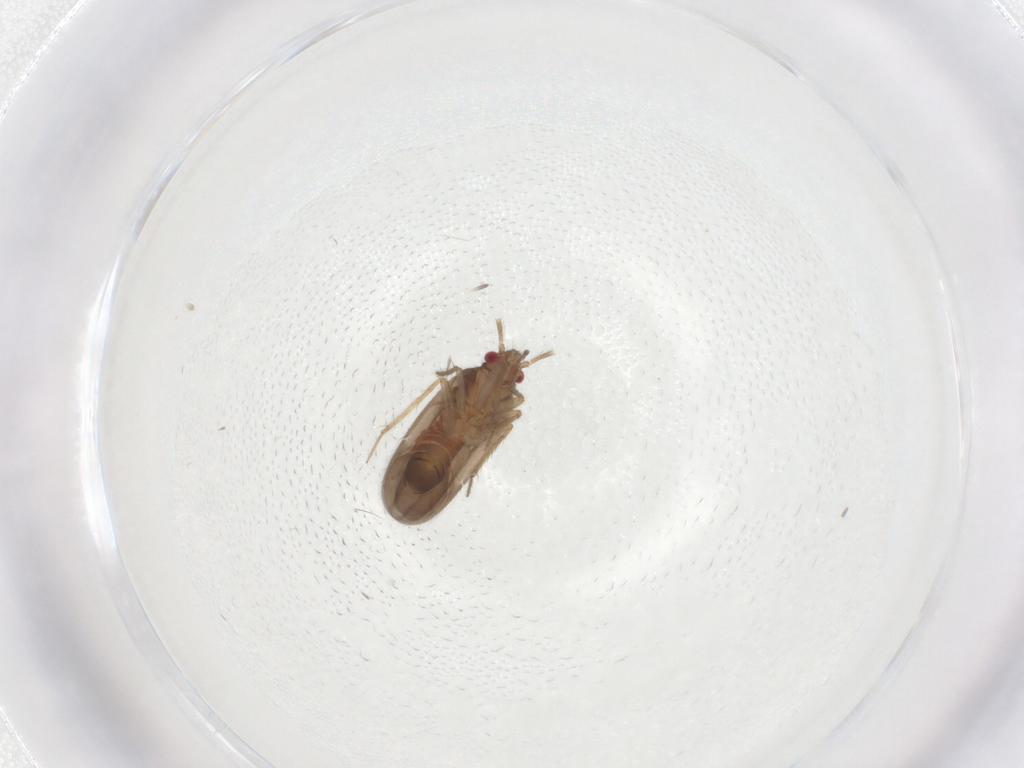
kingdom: Animalia
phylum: Arthropoda
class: Insecta
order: Hemiptera
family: Ceratocombidae
